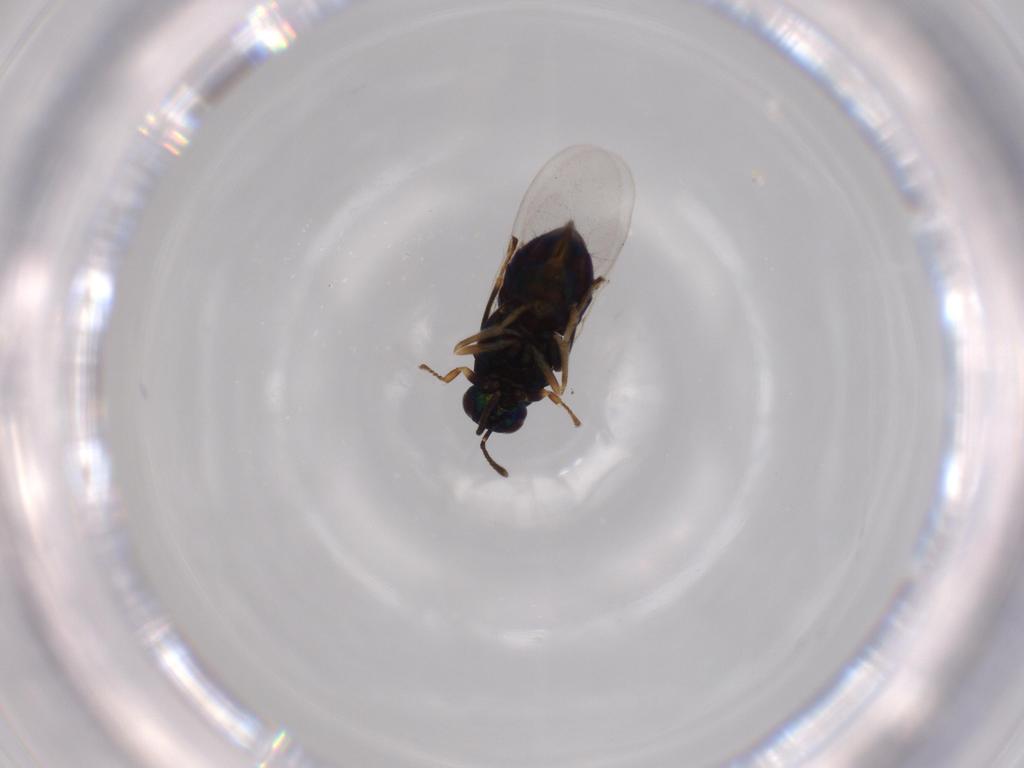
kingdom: Animalia
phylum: Arthropoda
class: Insecta
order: Hymenoptera
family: Encyrtidae
